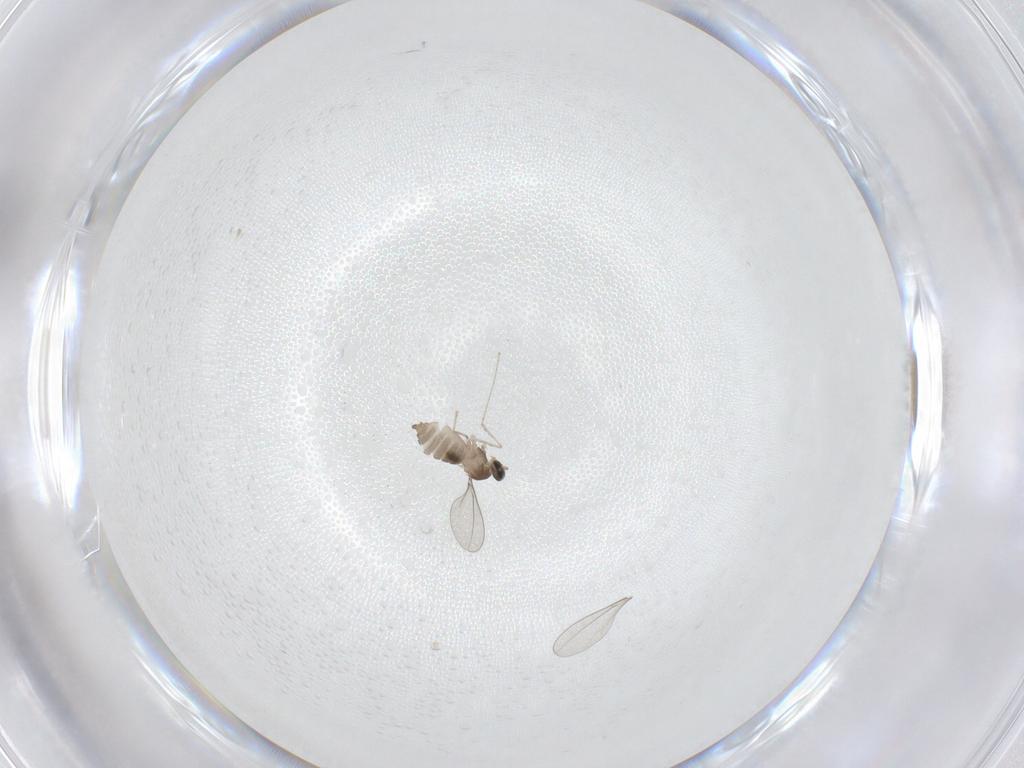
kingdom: Animalia
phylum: Arthropoda
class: Insecta
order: Diptera
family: Cecidomyiidae
